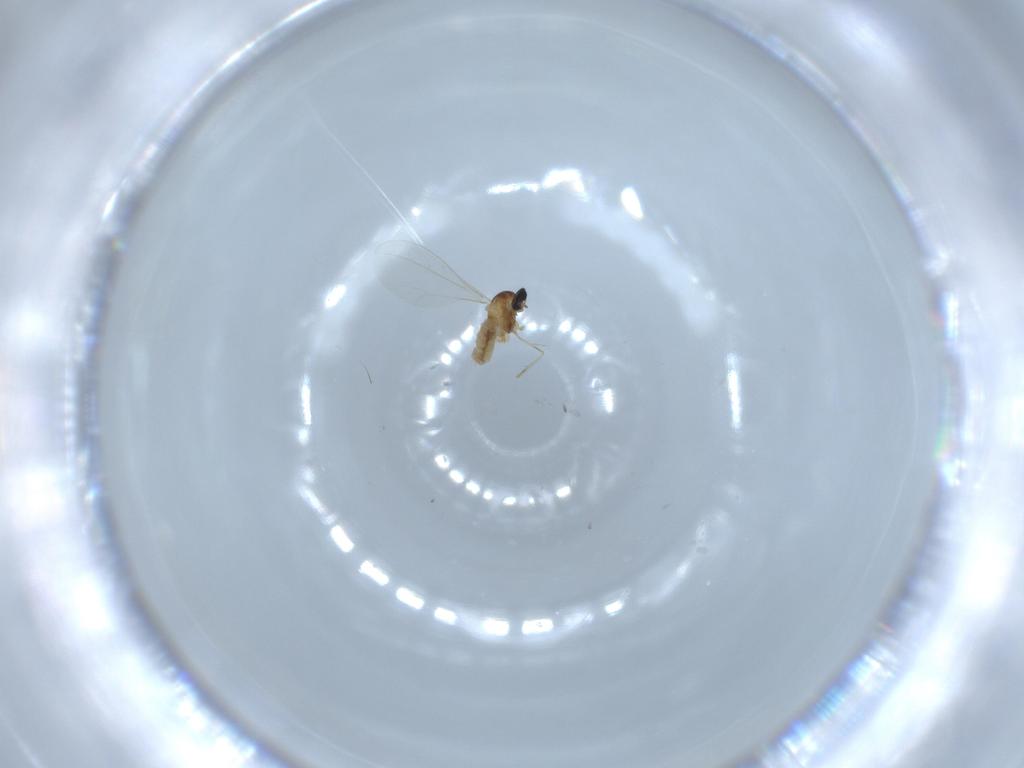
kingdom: Animalia
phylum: Arthropoda
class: Insecta
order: Diptera
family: Cecidomyiidae
